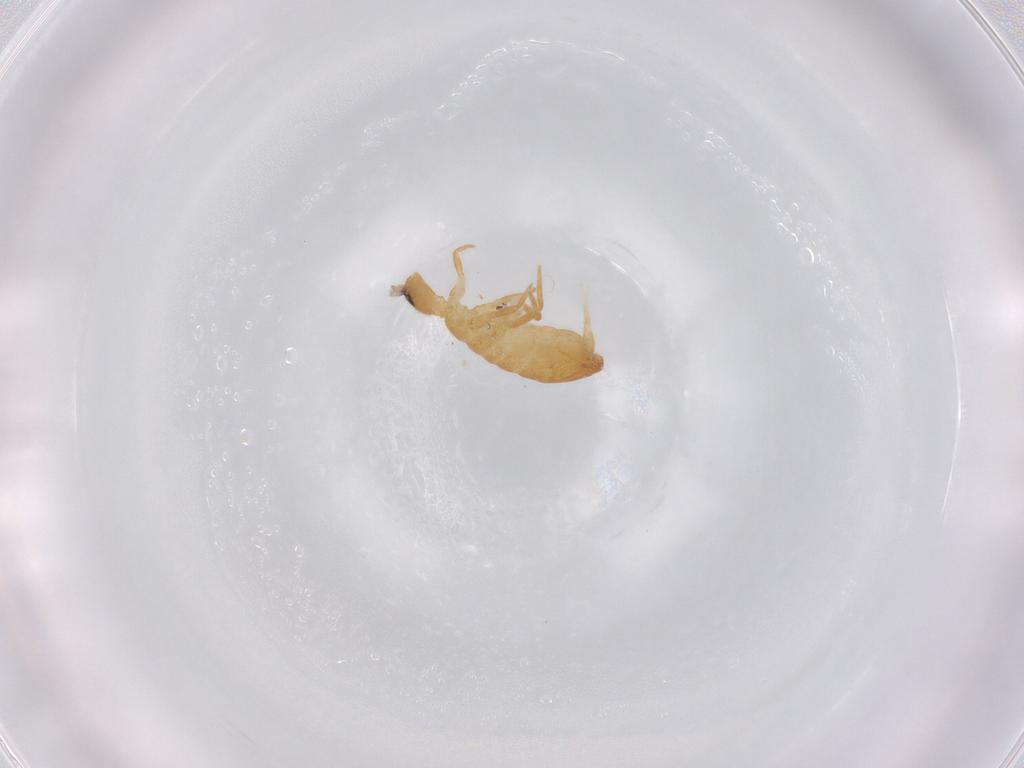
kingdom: Animalia
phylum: Arthropoda
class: Collembola
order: Entomobryomorpha
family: Entomobryidae
